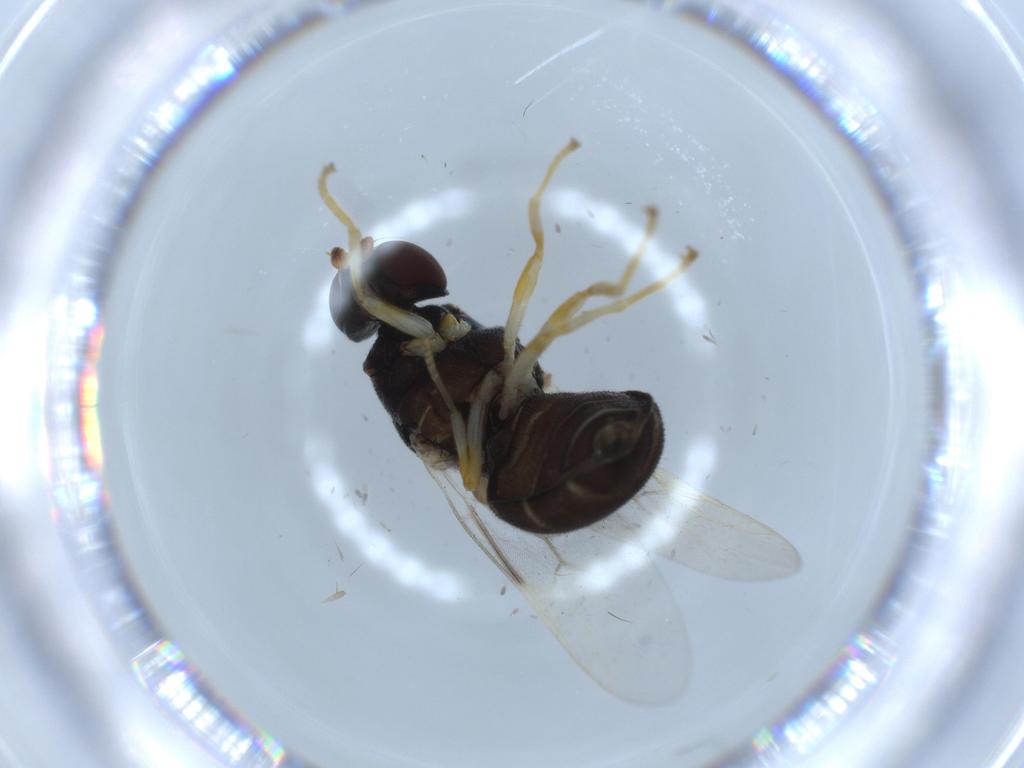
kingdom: Animalia
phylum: Arthropoda
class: Insecta
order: Diptera
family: Stratiomyidae
